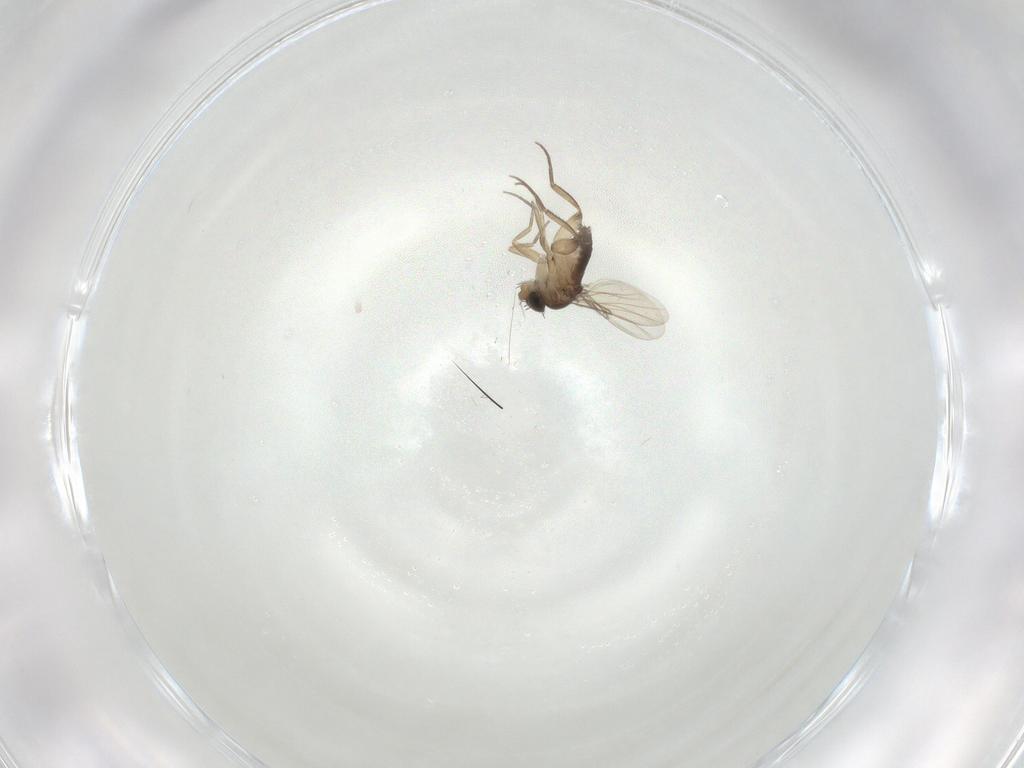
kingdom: Animalia
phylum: Arthropoda
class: Insecta
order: Diptera
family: Phoridae
